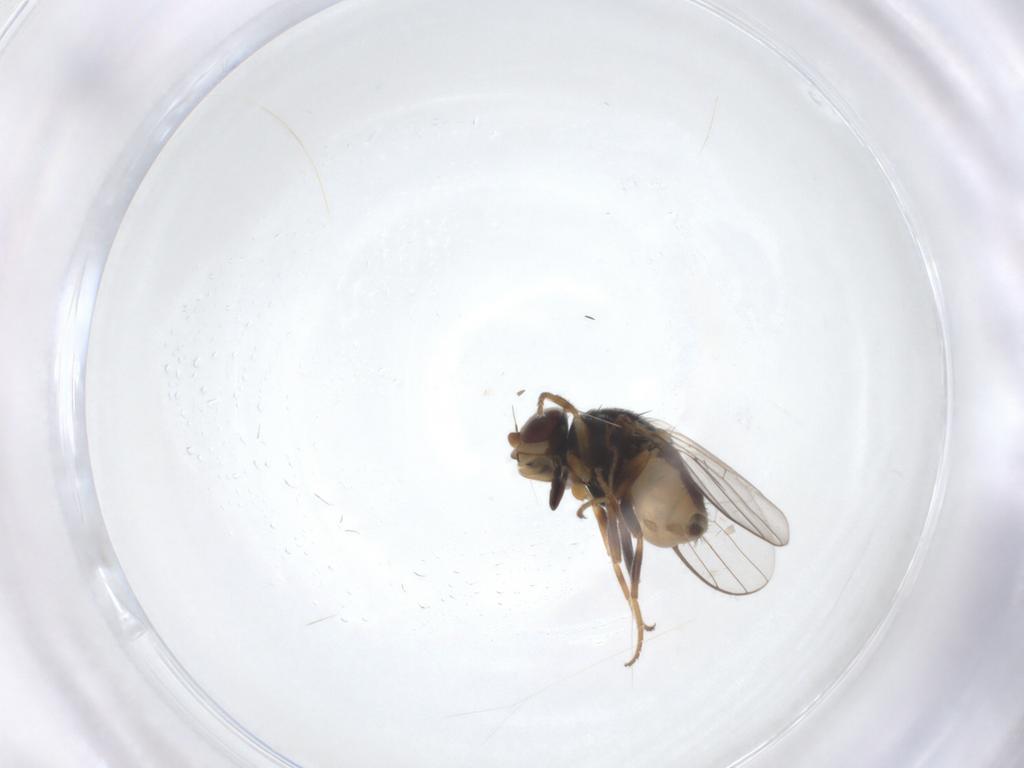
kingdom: Animalia
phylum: Arthropoda
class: Insecta
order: Diptera
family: Chloropidae
